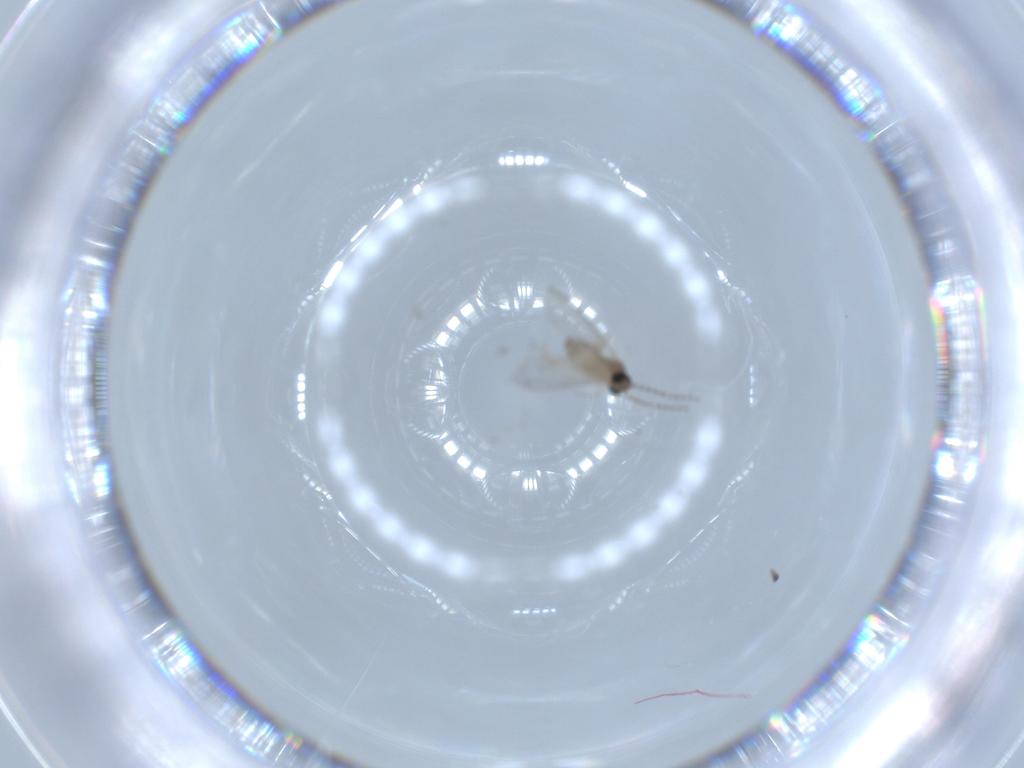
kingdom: Animalia
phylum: Arthropoda
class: Insecta
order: Diptera
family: Cecidomyiidae
